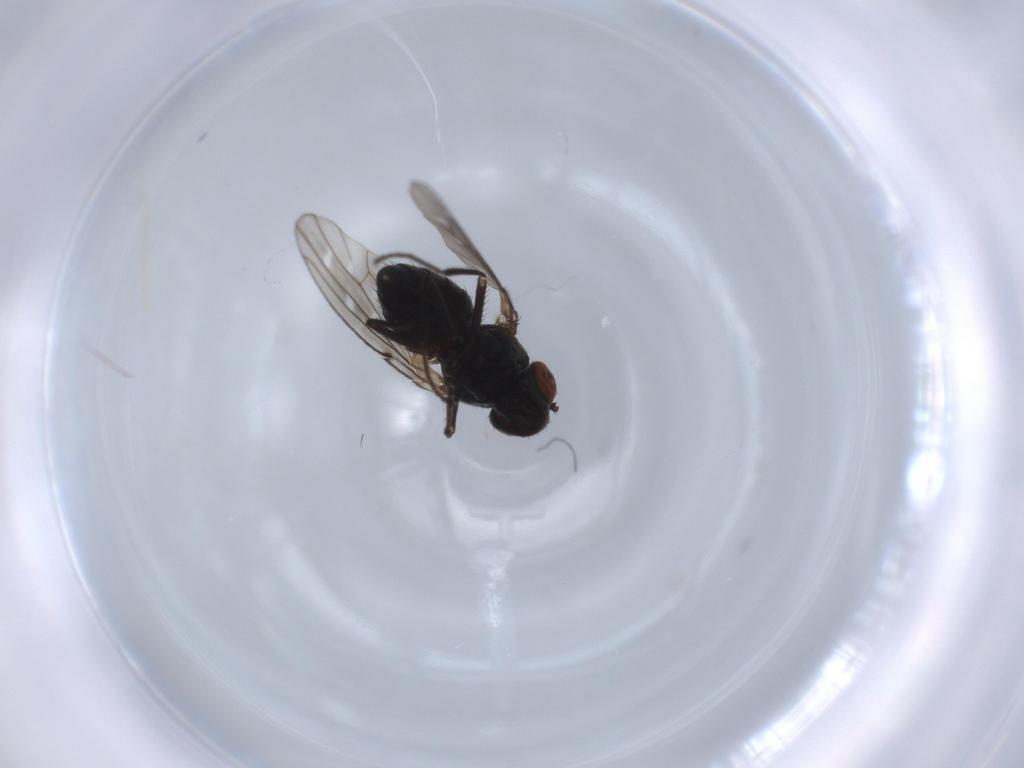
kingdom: Animalia
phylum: Arthropoda
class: Insecta
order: Diptera
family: Ephydridae
